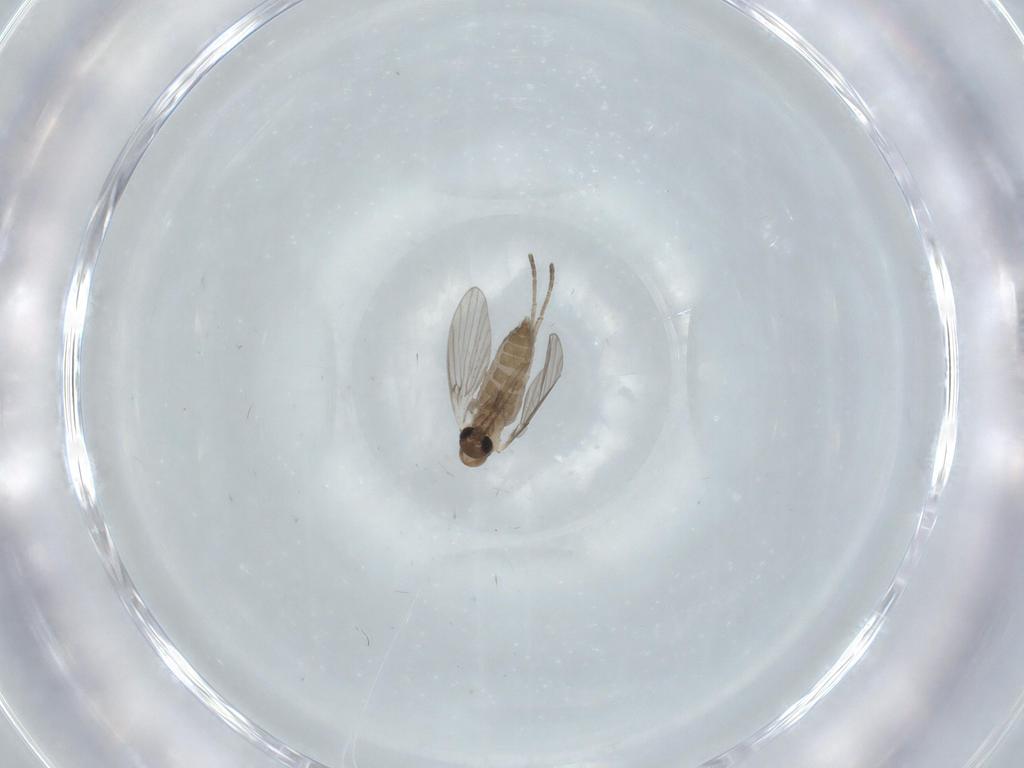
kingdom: Animalia
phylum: Arthropoda
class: Insecta
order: Diptera
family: Psychodidae
